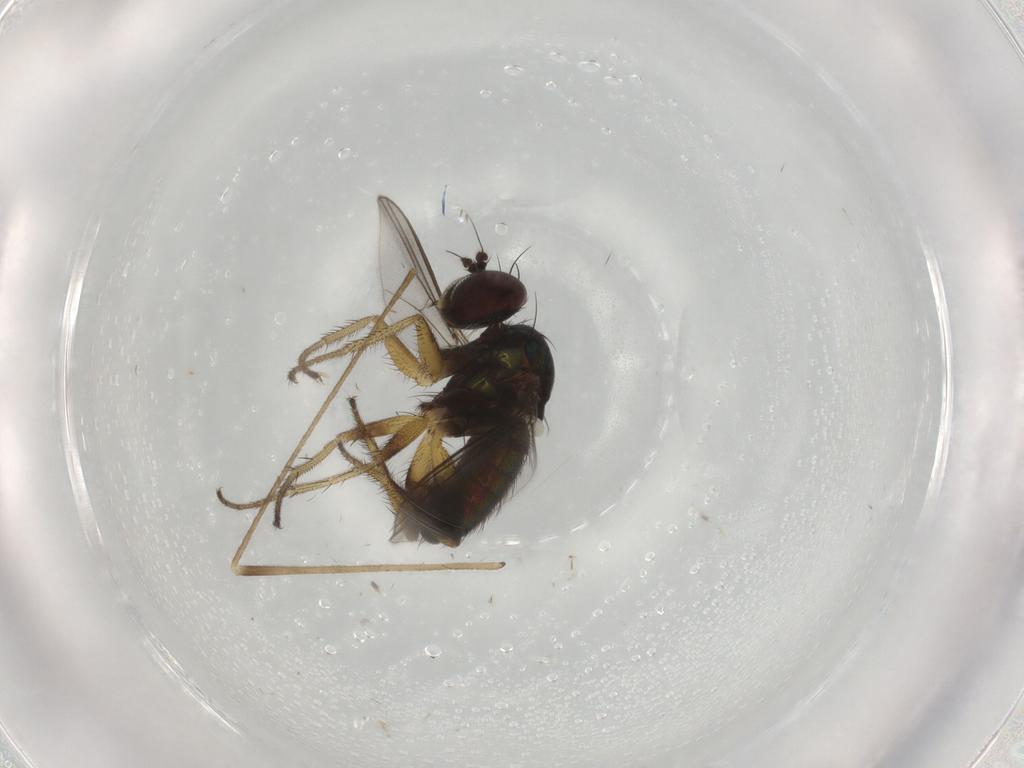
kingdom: Animalia
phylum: Arthropoda
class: Insecta
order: Diptera
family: Dolichopodidae
